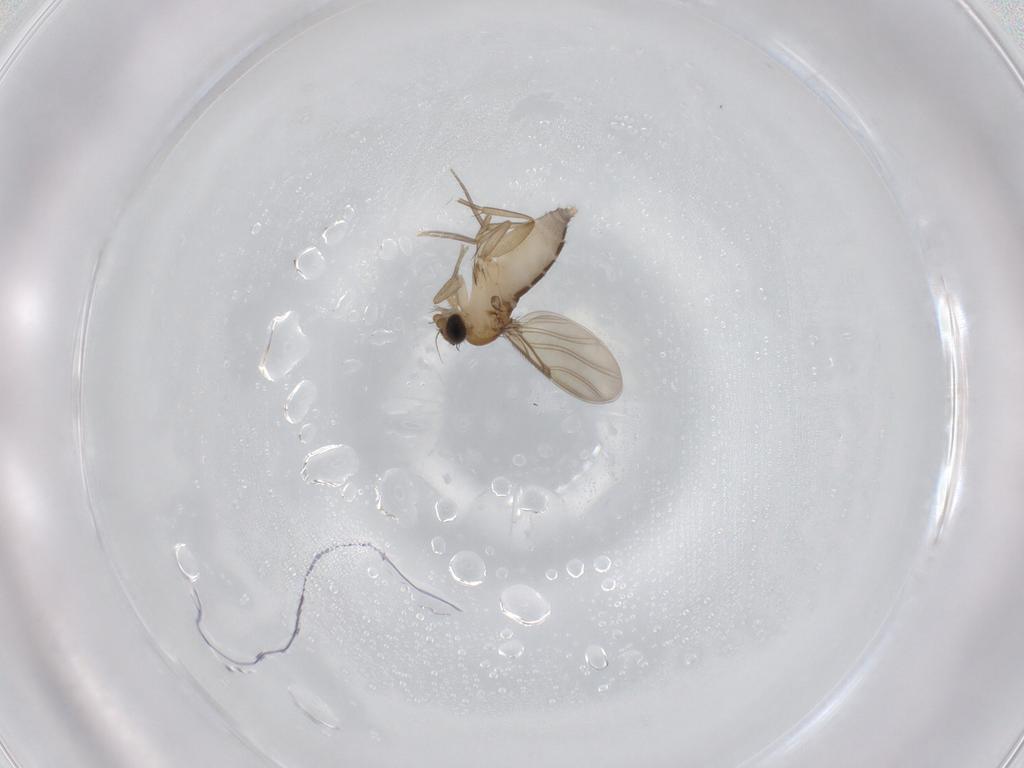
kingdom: Animalia
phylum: Arthropoda
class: Insecta
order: Diptera
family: Phoridae
